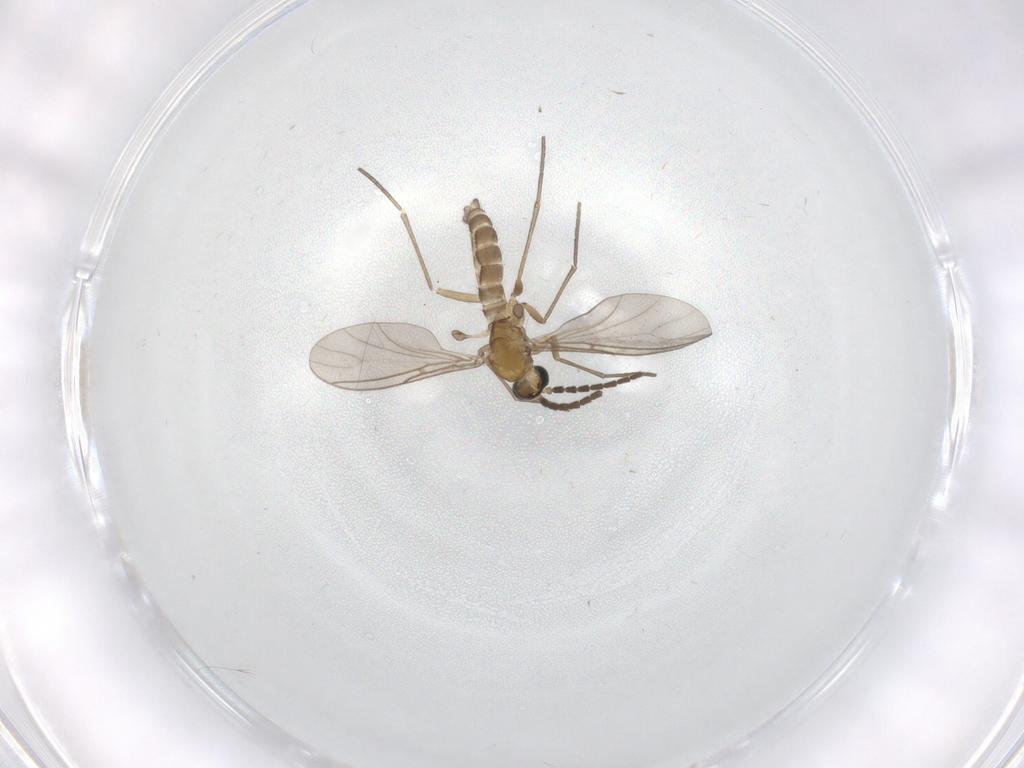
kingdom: Animalia
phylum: Arthropoda
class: Insecta
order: Diptera
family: Sciaridae
